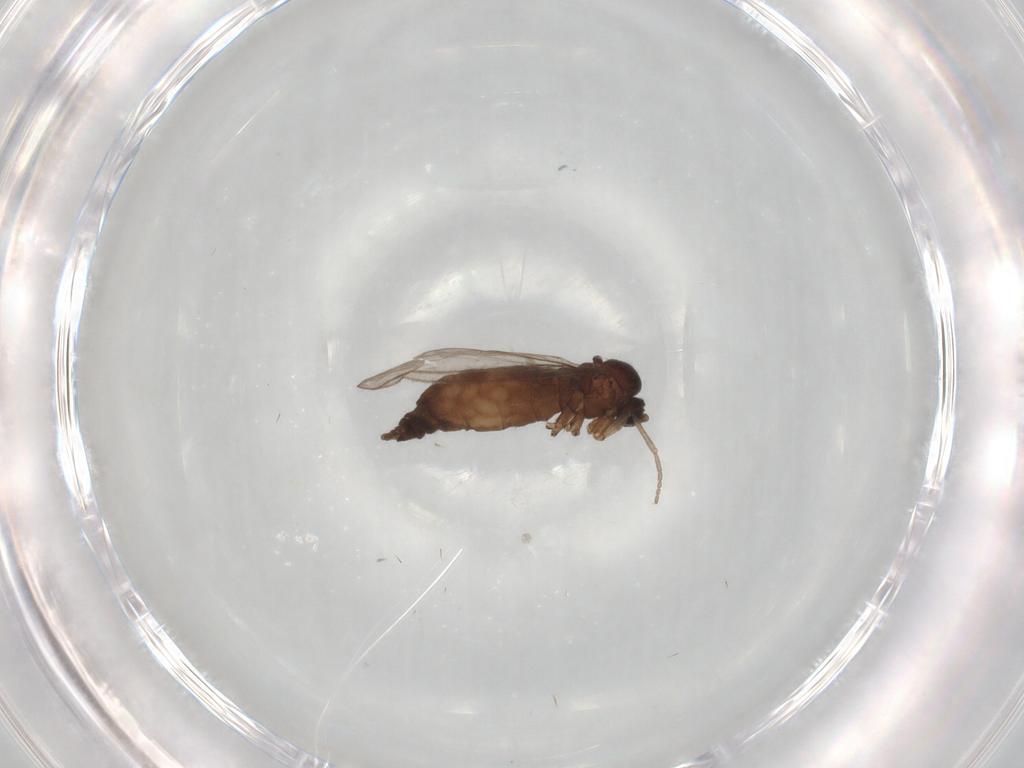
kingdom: Animalia
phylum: Arthropoda
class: Insecta
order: Diptera
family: Sciaridae
